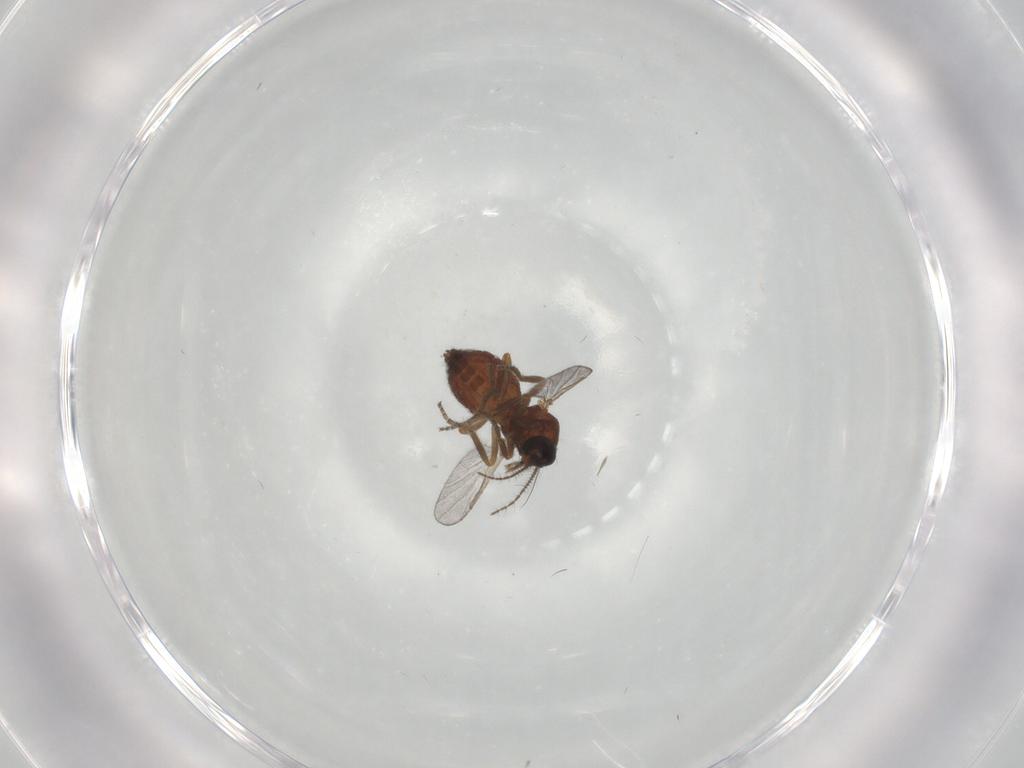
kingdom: Animalia
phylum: Arthropoda
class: Insecta
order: Diptera
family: Ceratopogonidae
